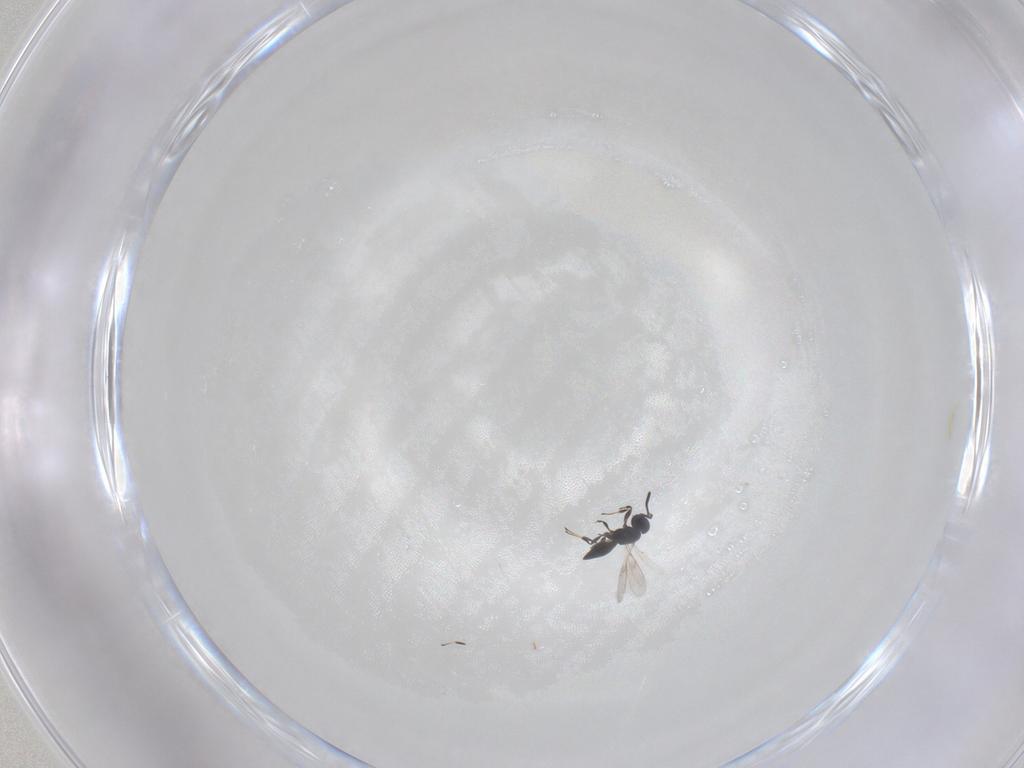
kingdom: Animalia
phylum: Arthropoda
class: Insecta
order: Hymenoptera
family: Scelionidae
